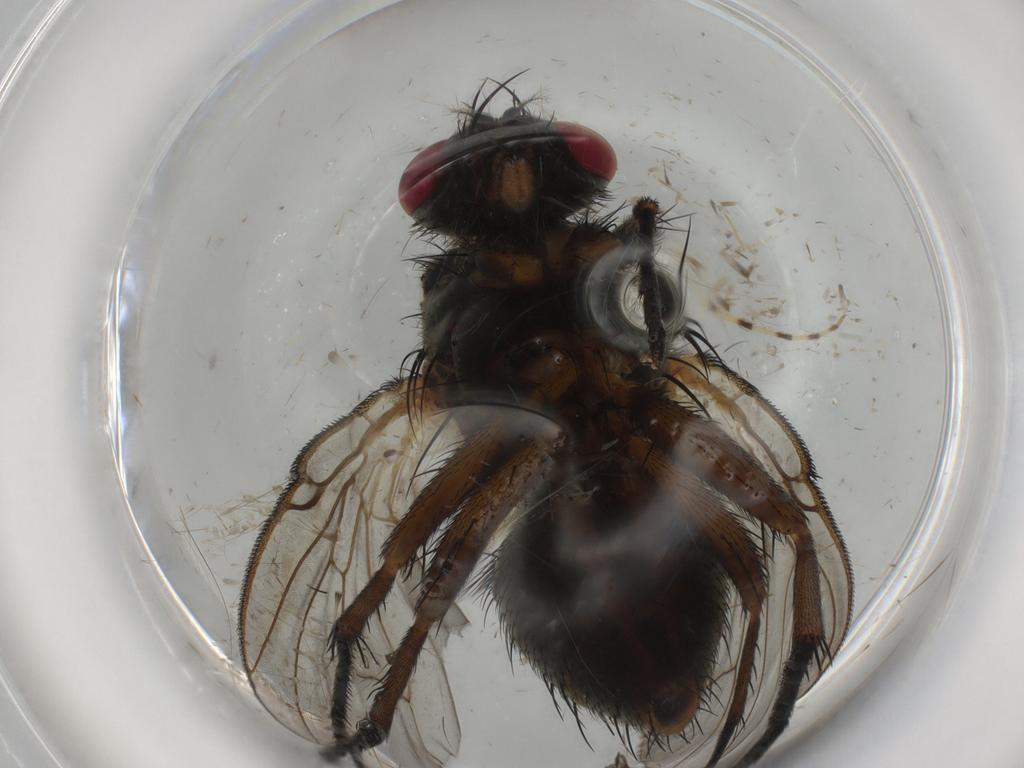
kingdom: Animalia
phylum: Arthropoda
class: Insecta
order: Diptera
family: Muscidae
